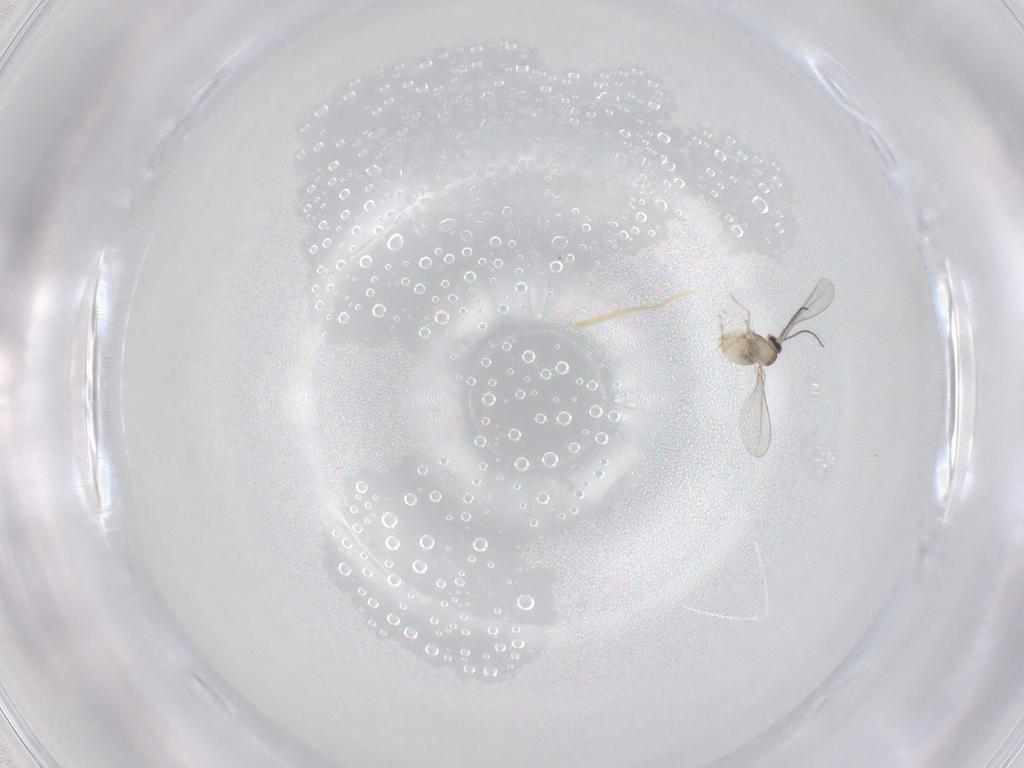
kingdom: Animalia
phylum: Arthropoda
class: Insecta
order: Diptera
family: Cecidomyiidae
